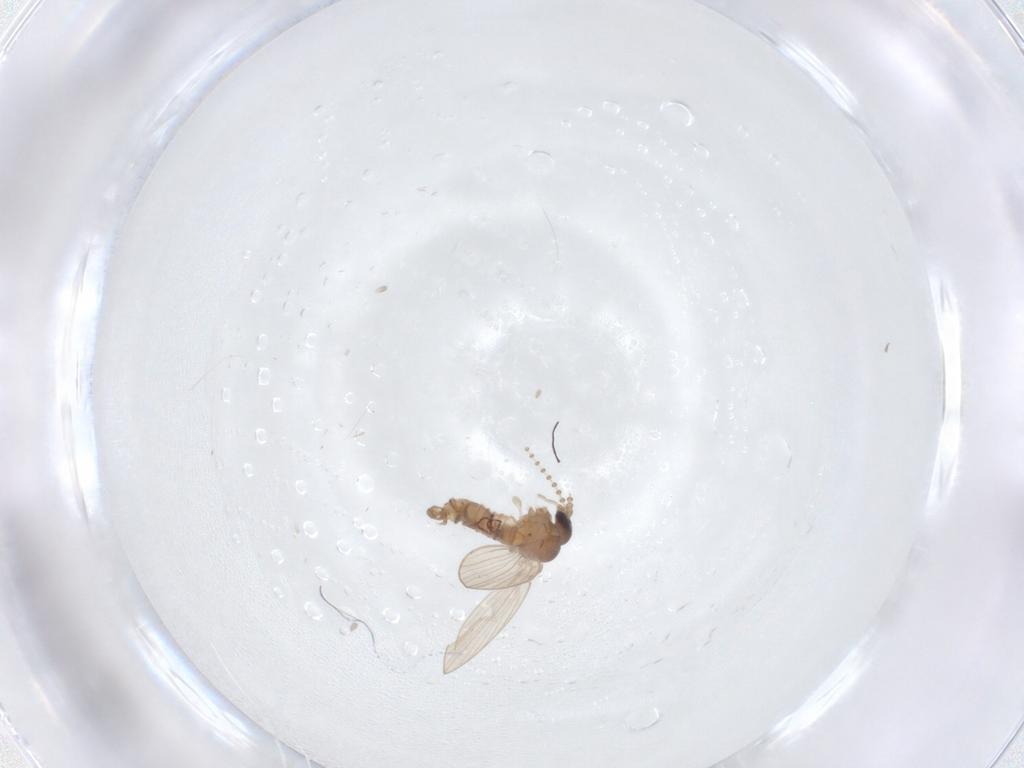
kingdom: Animalia
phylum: Arthropoda
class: Insecta
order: Diptera
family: Psychodidae
